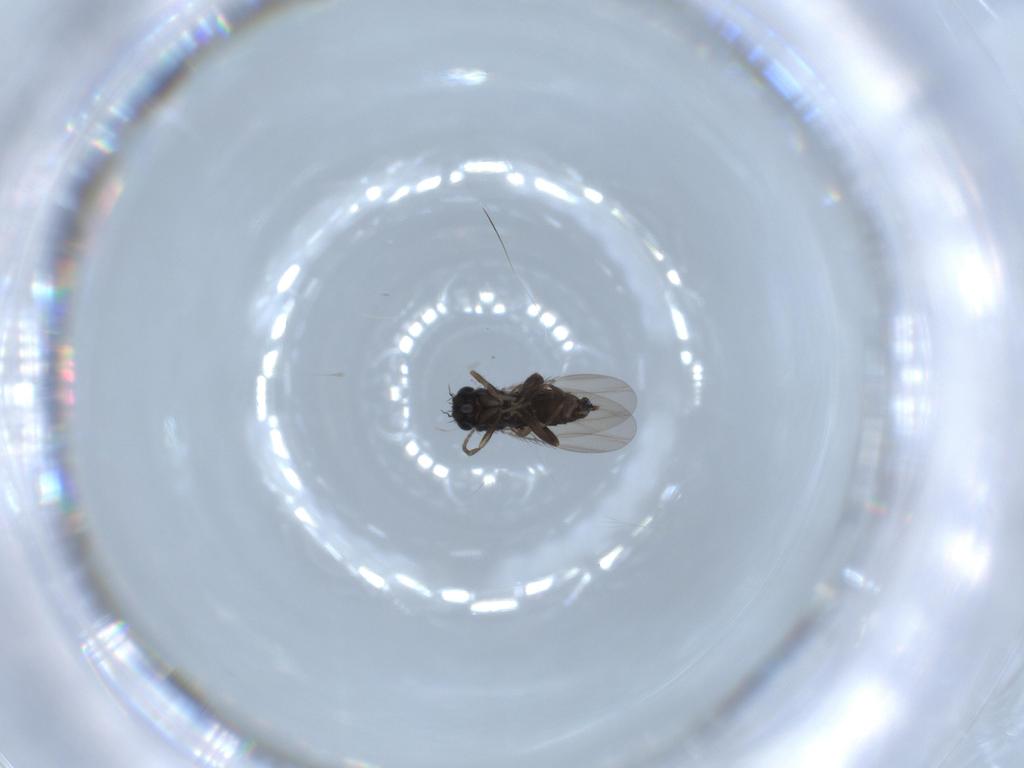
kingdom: Animalia
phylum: Arthropoda
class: Insecta
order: Diptera
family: Phoridae
